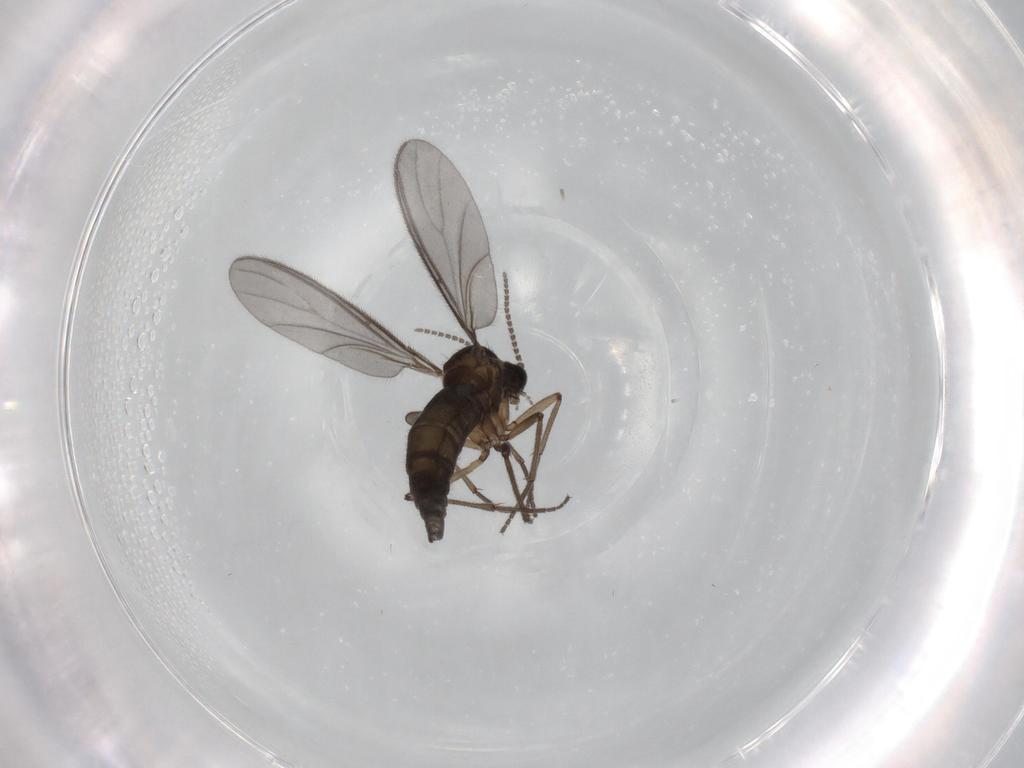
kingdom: Animalia
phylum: Arthropoda
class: Insecta
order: Diptera
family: Sciaridae
